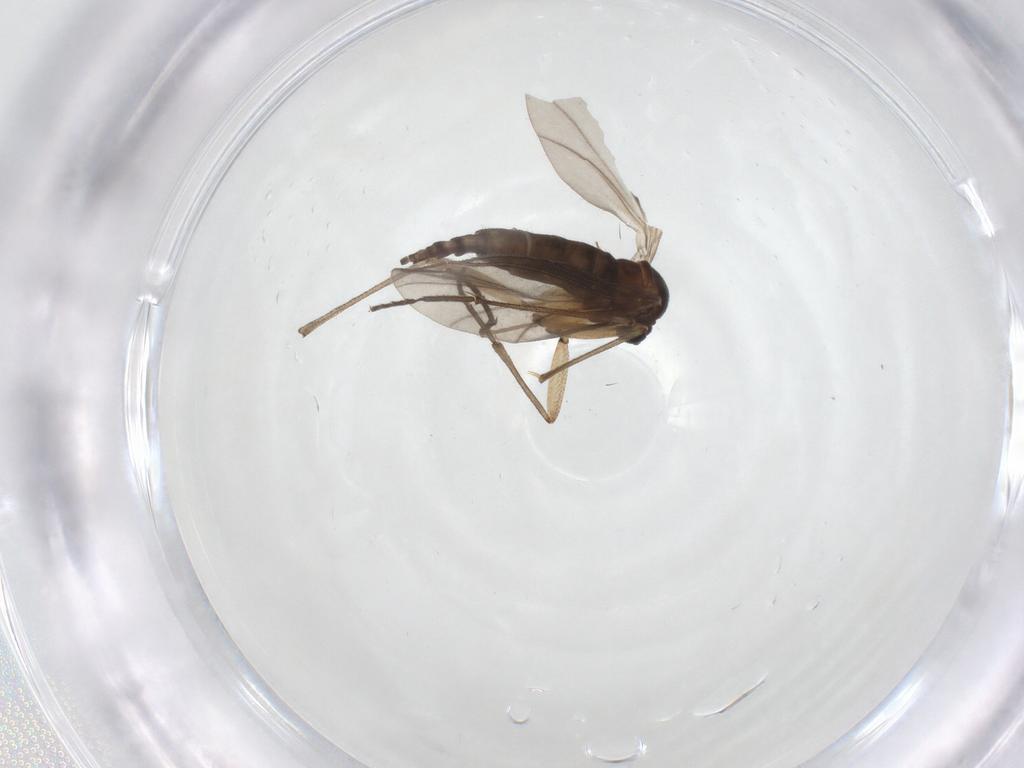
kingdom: Animalia
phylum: Arthropoda
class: Insecta
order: Diptera
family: Sciaridae
